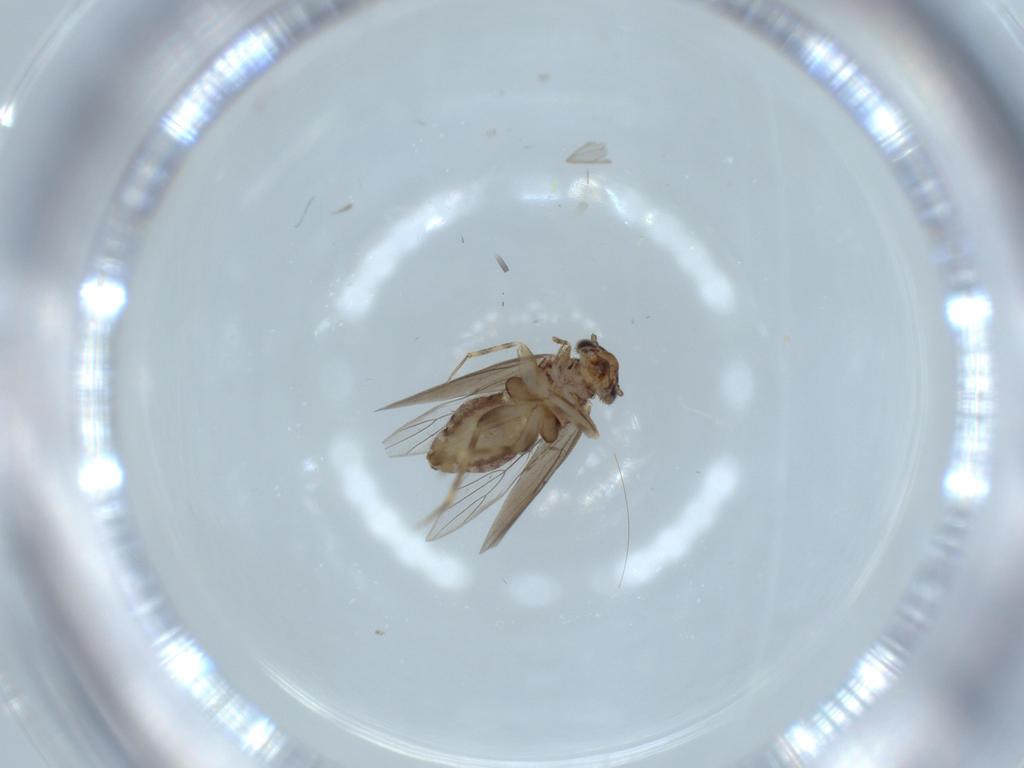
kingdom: Animalia
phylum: Arthropoda
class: Insecta
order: Psocodea
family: Lepidopsocidae
